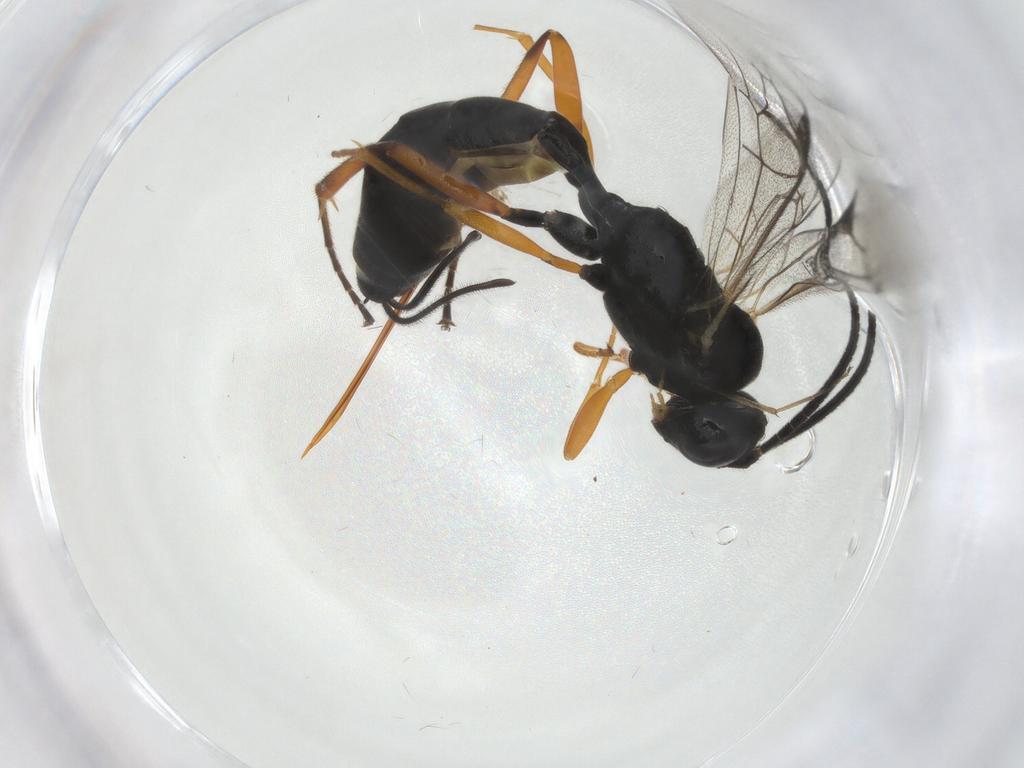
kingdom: Animalia
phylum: Arthropoda
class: Insecta
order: Hymenoptera
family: Ichneumonidae
